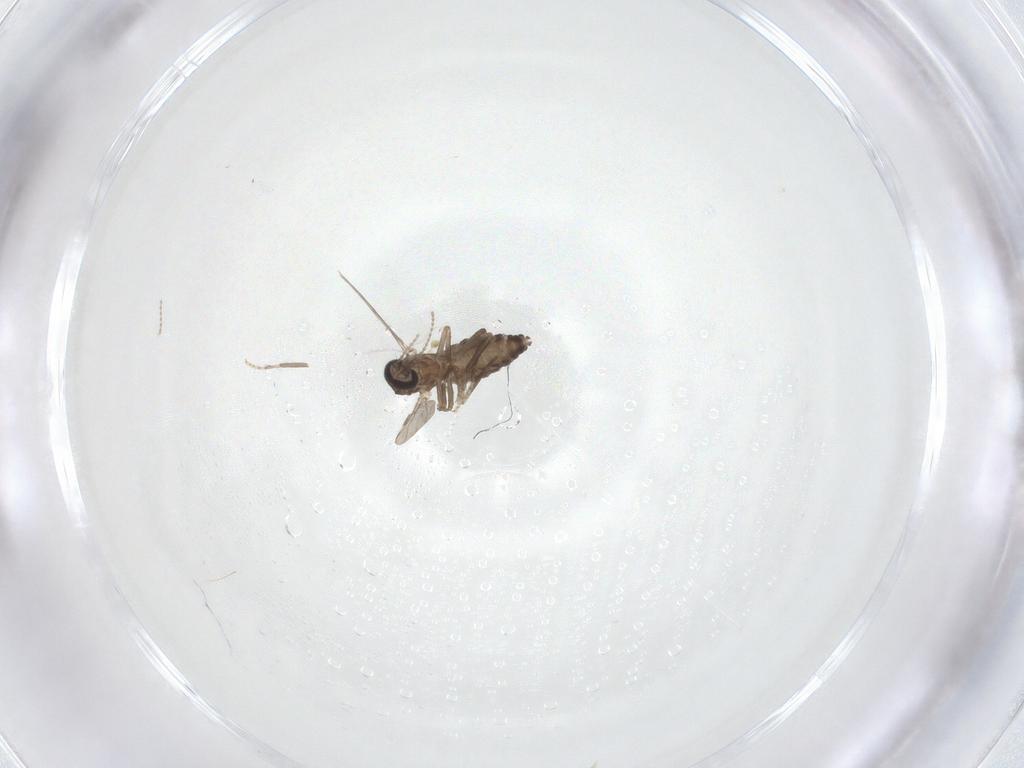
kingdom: Animalia
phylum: Arthropoda
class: Insecta
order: Diptera
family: Ceratopogonidae
